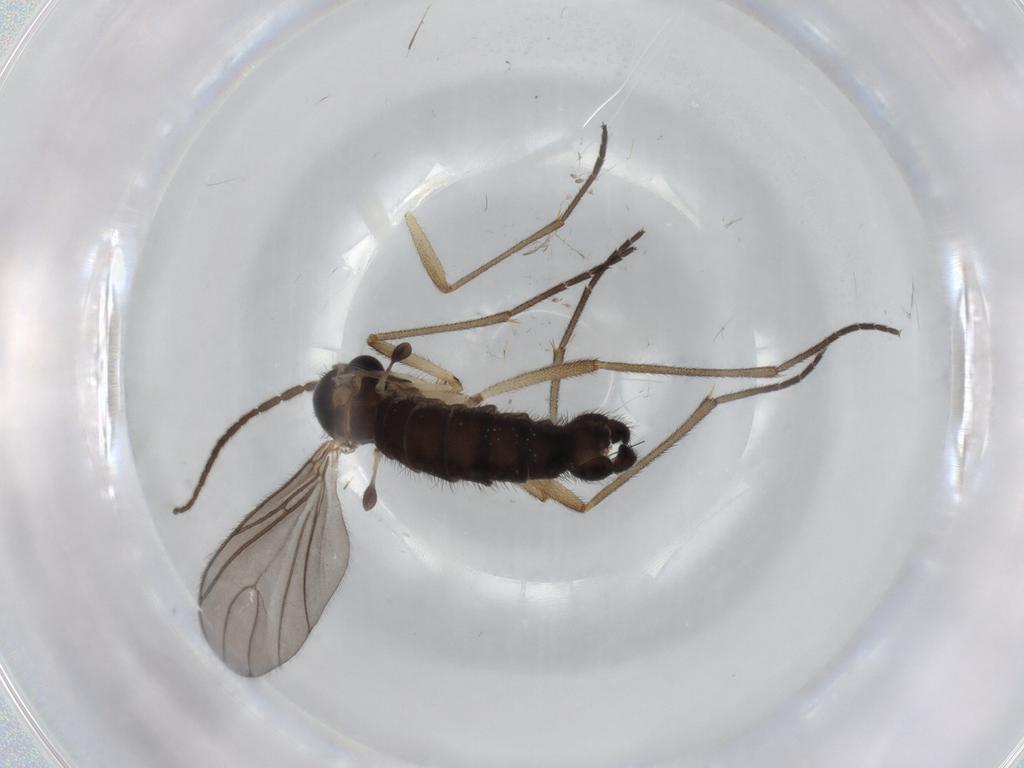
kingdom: Animalia
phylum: Arthropoda
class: Insecta
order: Diptera
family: Sciaridae
